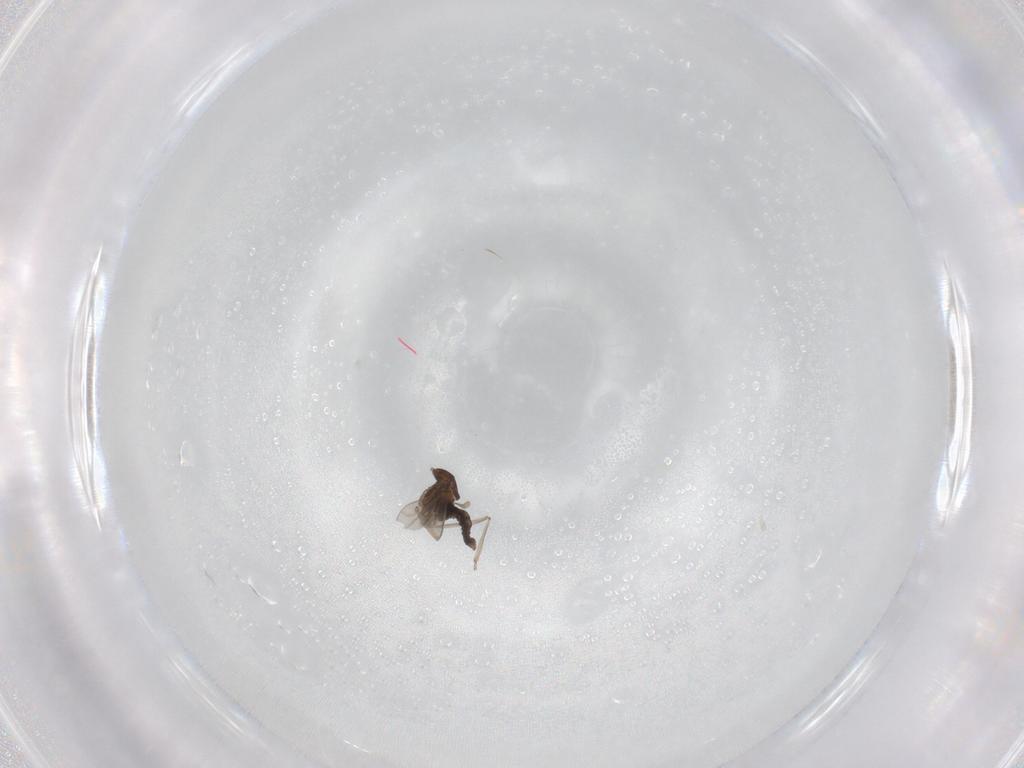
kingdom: Animalia
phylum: Arthropoda
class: Insecta
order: Diptera
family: Cecidomyiidae
